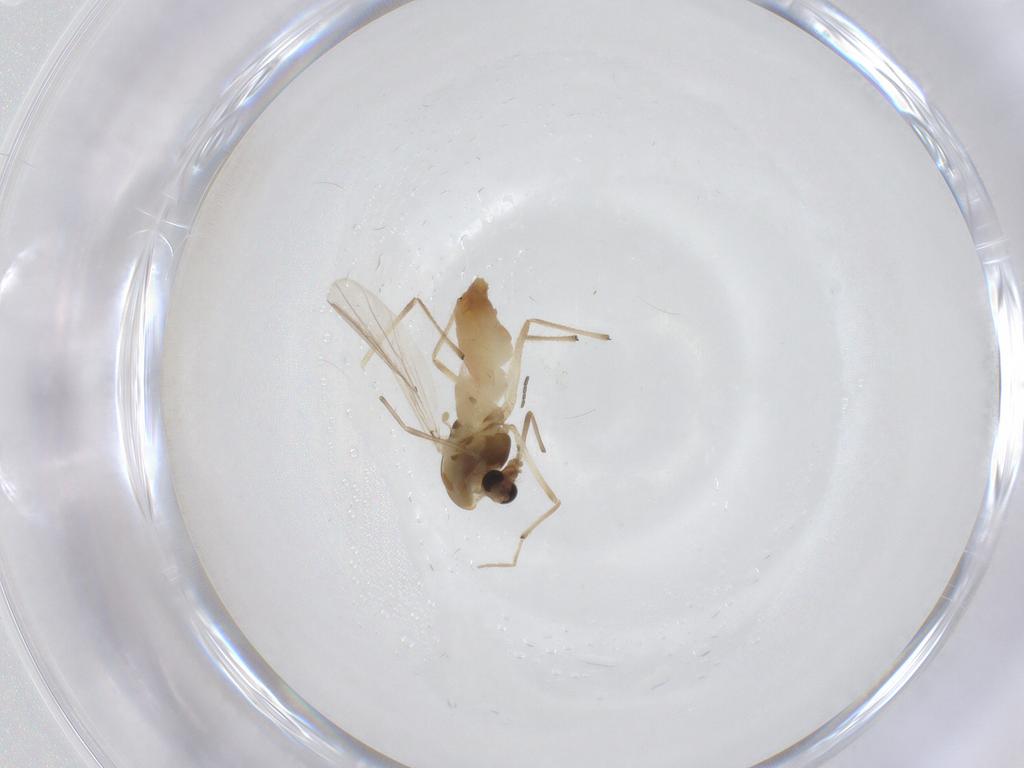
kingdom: Animalia
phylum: Arthropoda
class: Insecta
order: Diptera
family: Chironomidae
